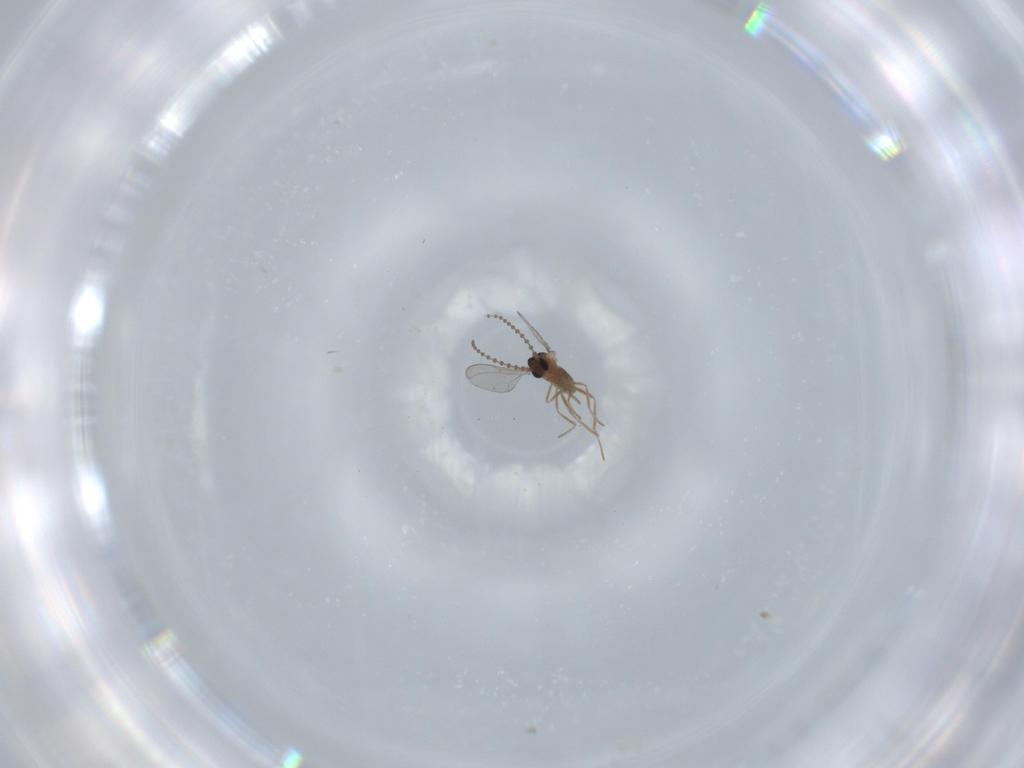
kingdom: Animalia
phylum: Arthropoda
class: Insecta
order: Diptera
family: Cecidomyiidae
